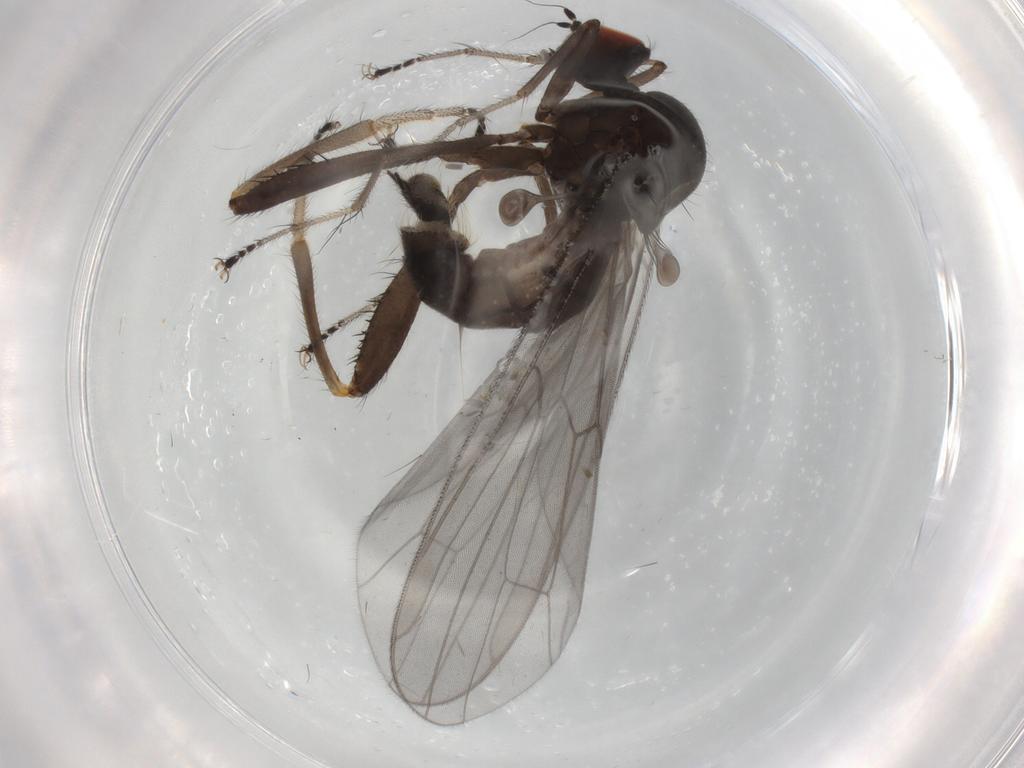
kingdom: Animalia
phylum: Arthropoda
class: Insecta
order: Diptera
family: Hybotidae
